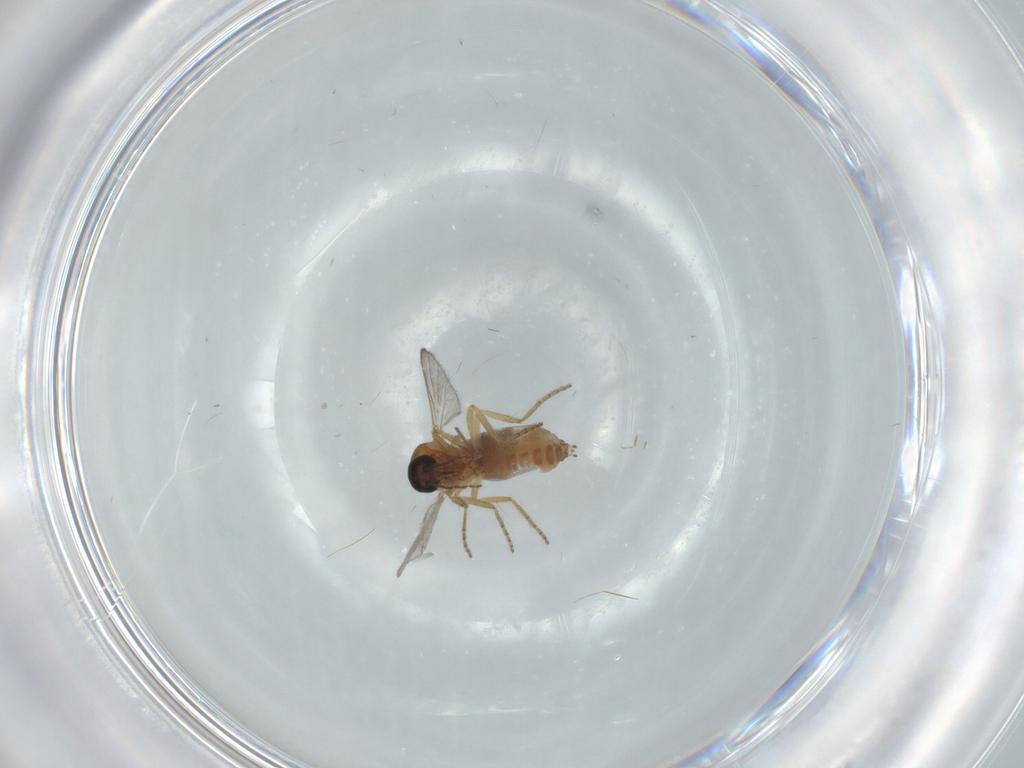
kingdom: Animalia
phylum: Arthropoda
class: Insecta
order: Diptera
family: Ceratopogonidae
